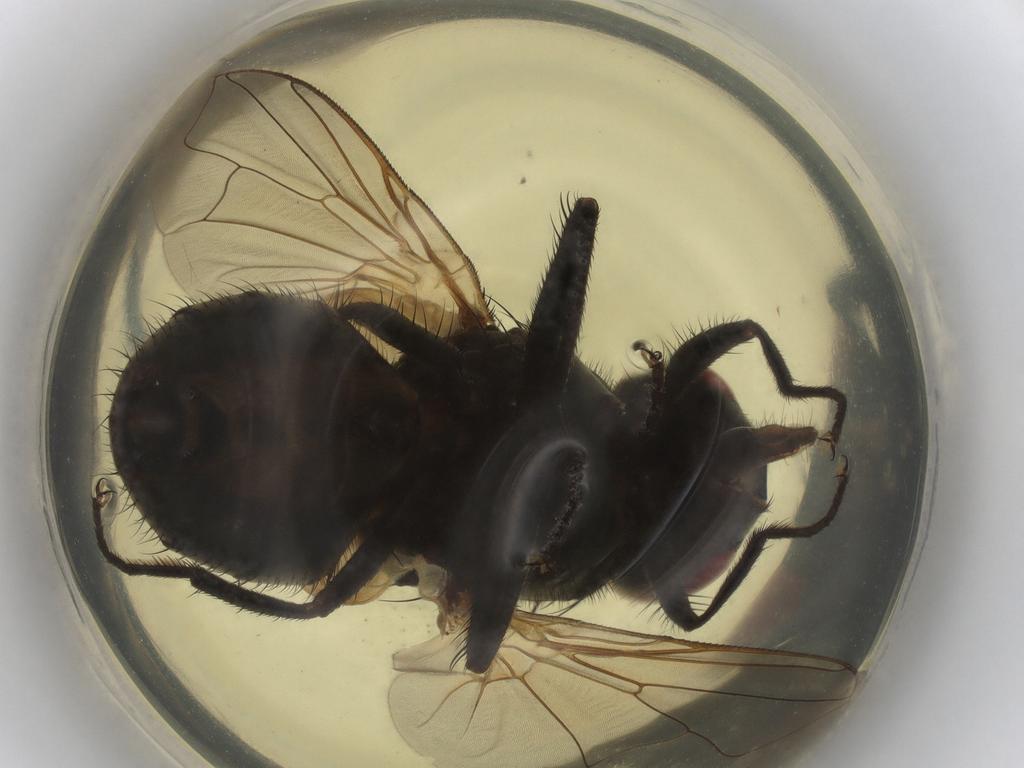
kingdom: Animalia
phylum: Arthropoda
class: Insecta
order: Diptera
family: Muscidae
